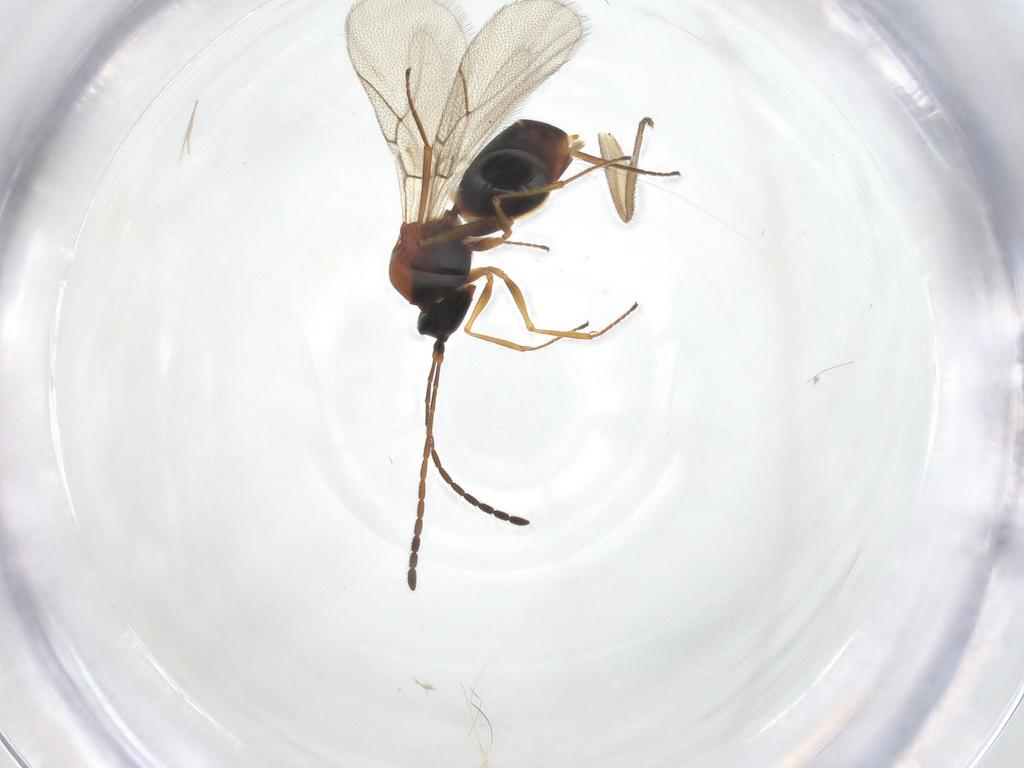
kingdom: Animalia
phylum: Arthropoda
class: Insecta
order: Hymenoptera
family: Figitidae
